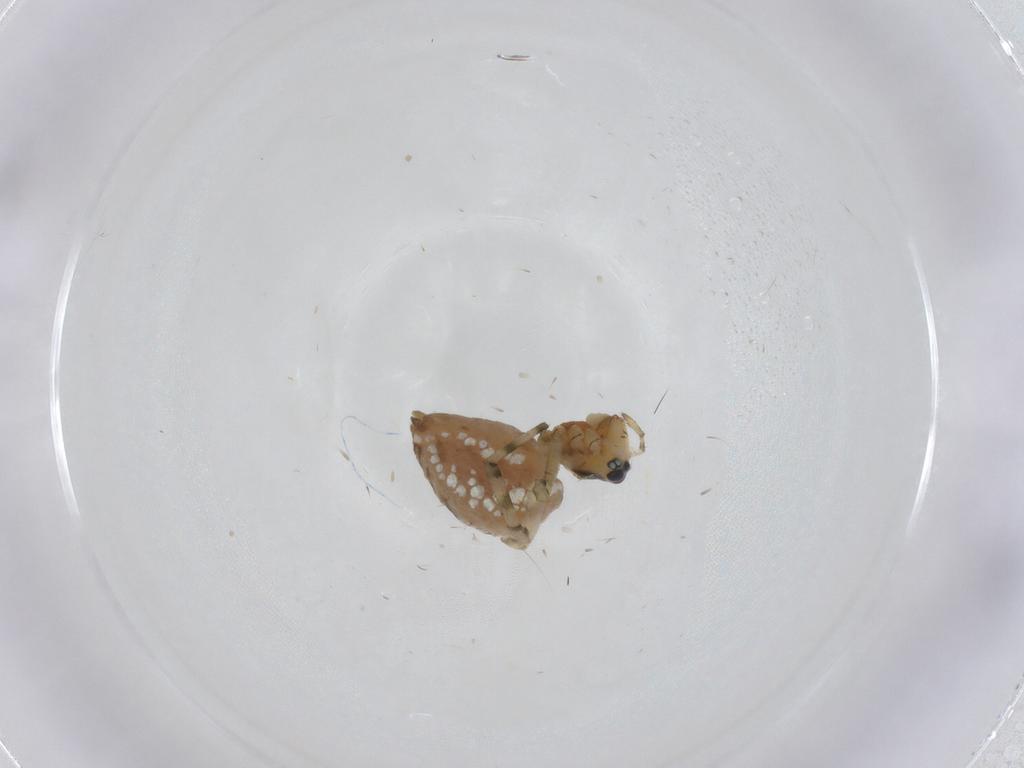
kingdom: Animalia
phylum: Arthropoda
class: Arachnida
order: Araneae
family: Linyphiidae
